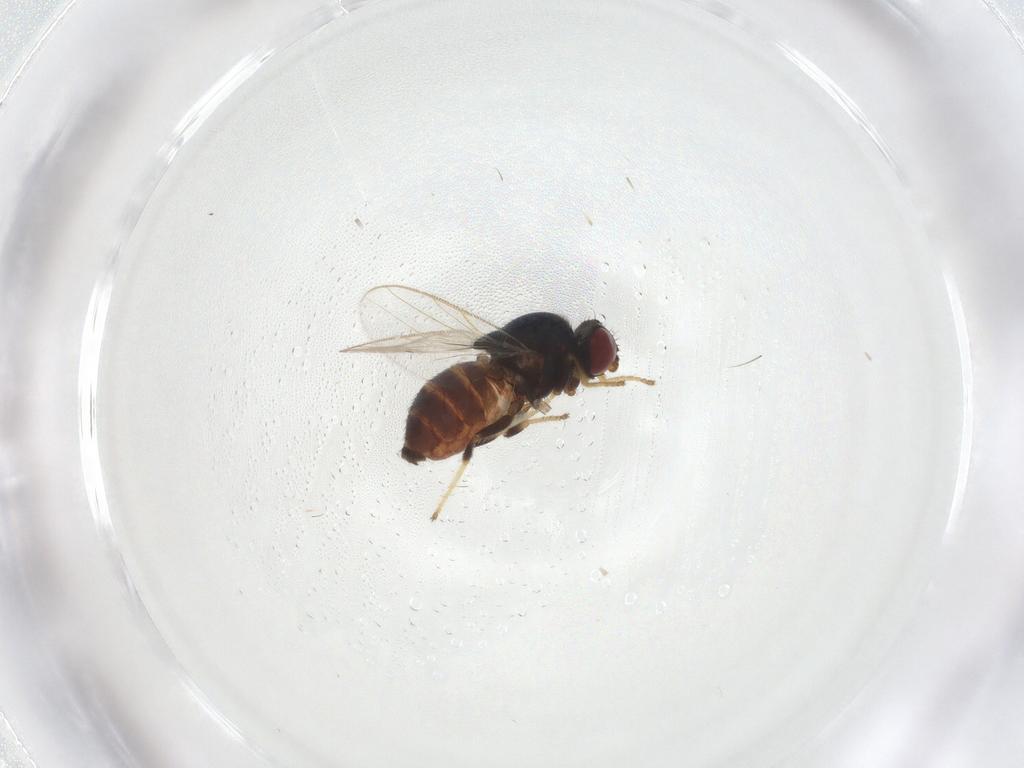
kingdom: Animalia
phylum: Arthropoda
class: Insecta
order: Diptera
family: Chloropidae
